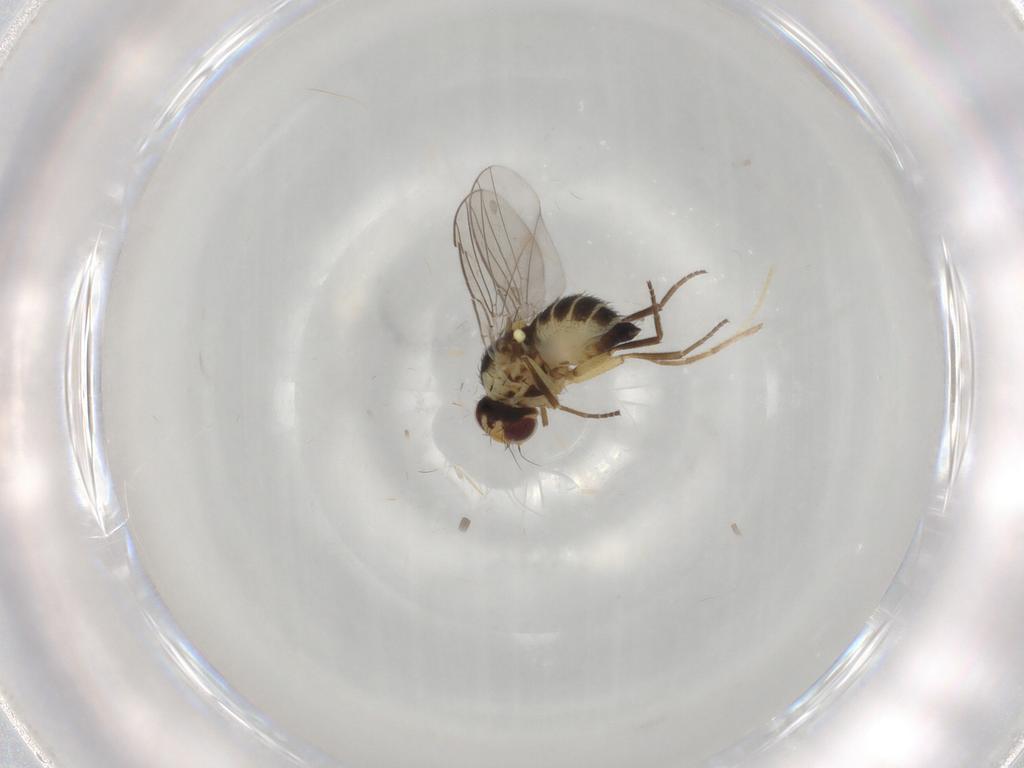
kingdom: Animalia
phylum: Arthropoda
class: Insecta
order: Diptera
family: Agromyzidae
